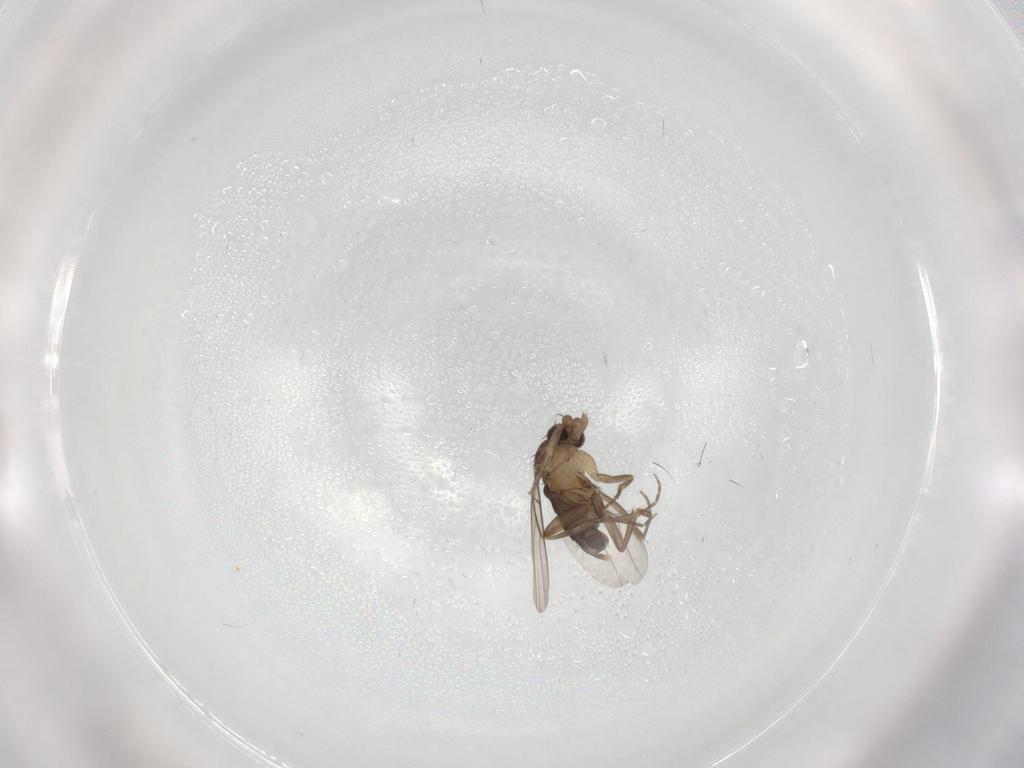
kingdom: Animalia
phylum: Arthropoda
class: Insecta
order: Diptera
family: Phoridae
